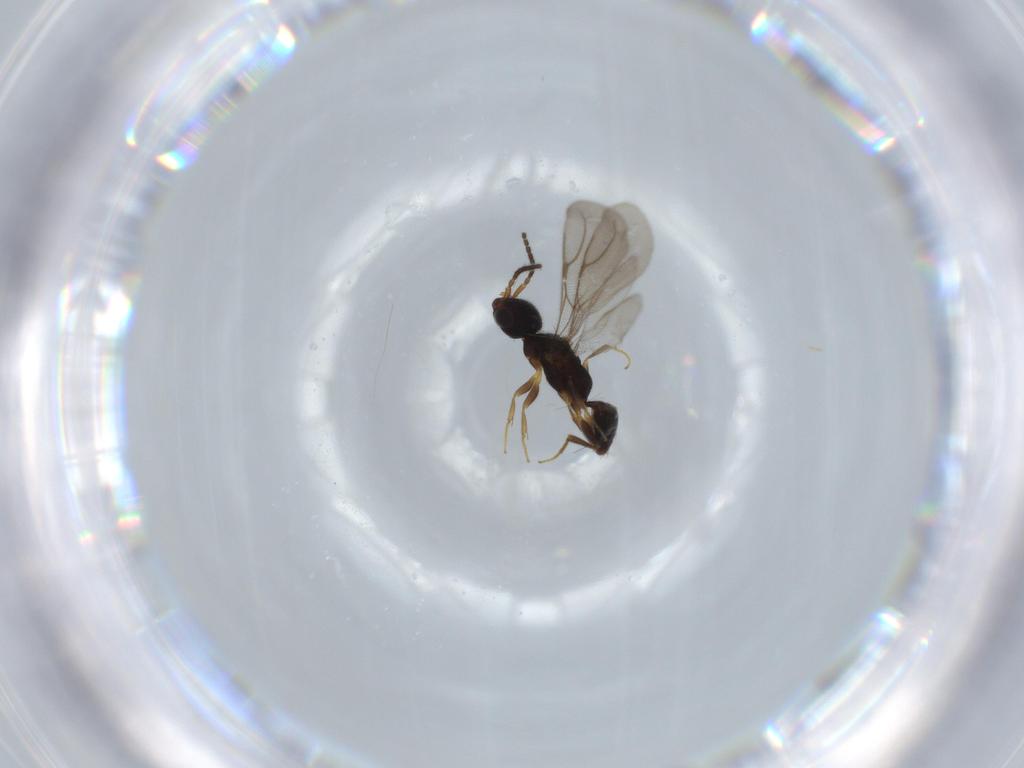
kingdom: Animalia
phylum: Arthropoda
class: Insecta
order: Hymenoptera
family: Bethylidae
